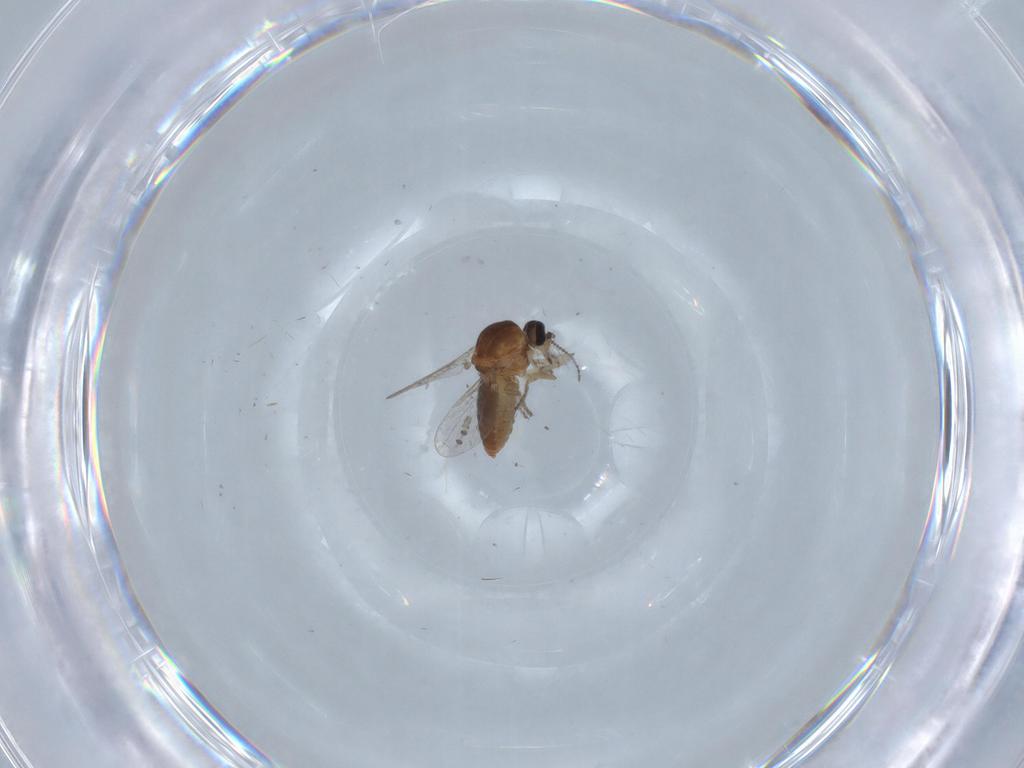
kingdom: Animalia
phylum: Arthropoda
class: Insecta
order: Diptera
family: Ceratopogonidae
